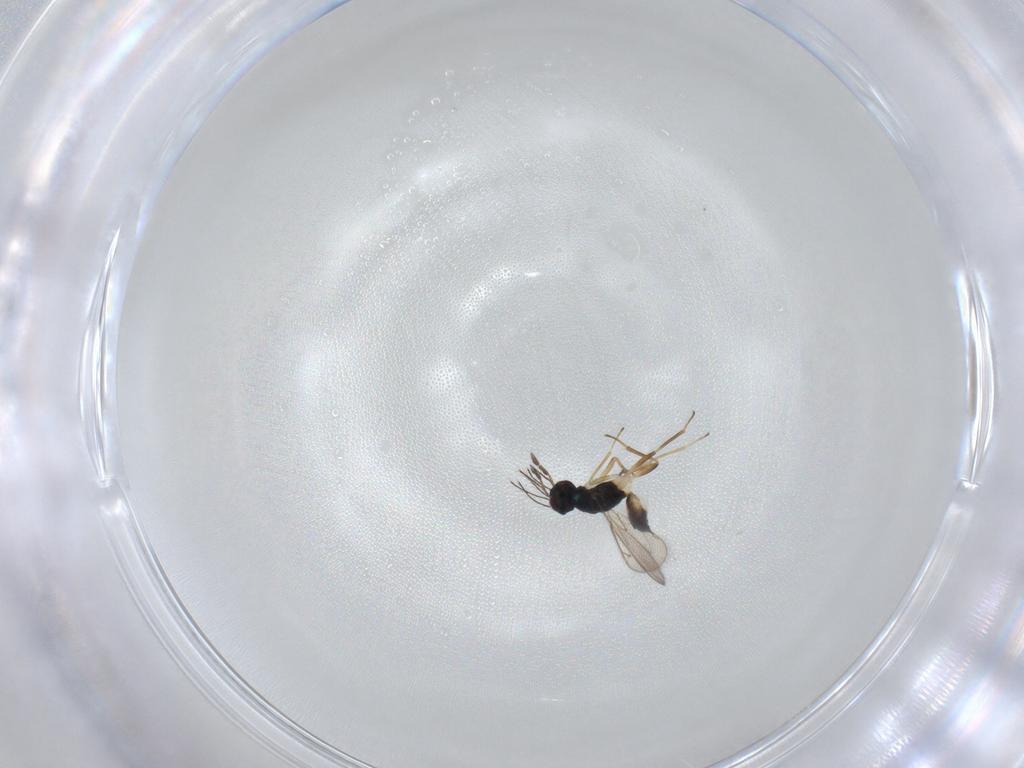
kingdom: Animalia
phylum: Arthropoda
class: Insecta
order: Hymenoptera
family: Eulophidae
